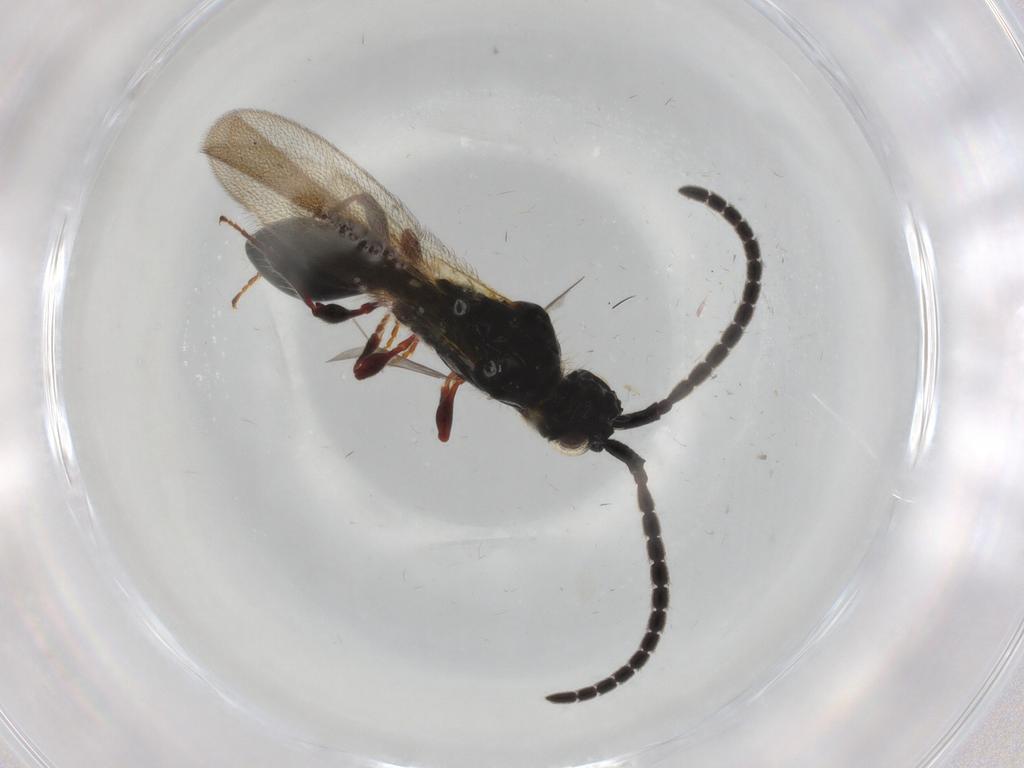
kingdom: Animalia
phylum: Arthropoda
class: Insecta
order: Hymenoptera
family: Diapriidae
